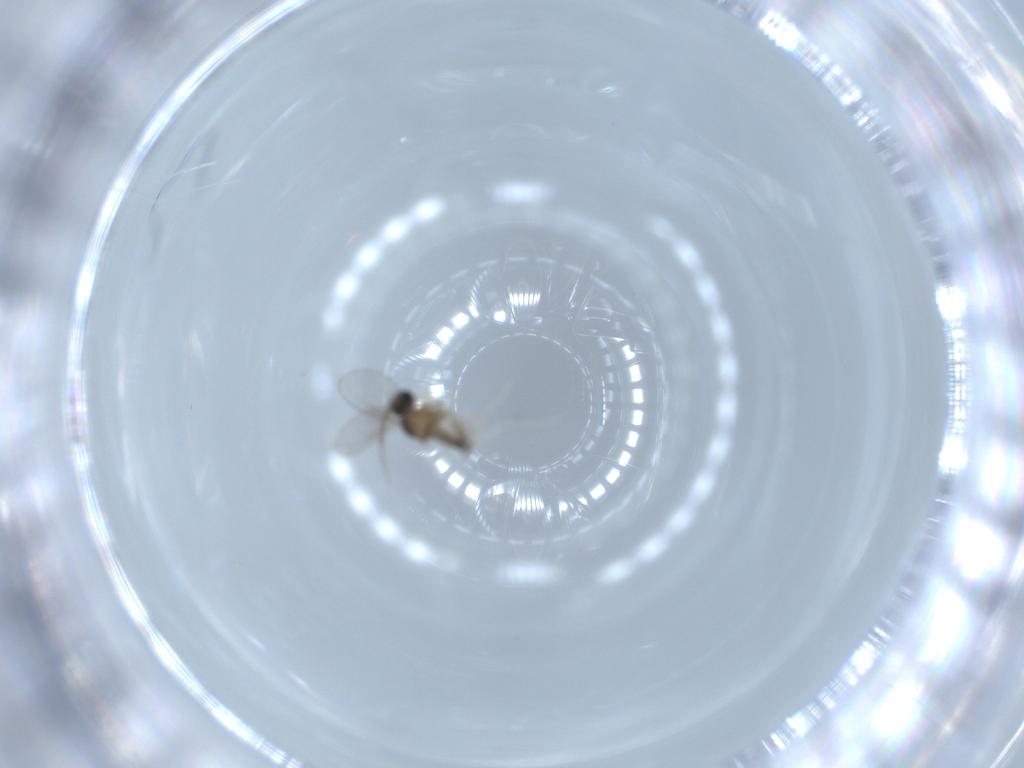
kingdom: Animalia
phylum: Arthropoda
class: Insecta
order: Diptera
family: Cecidomyiidae
